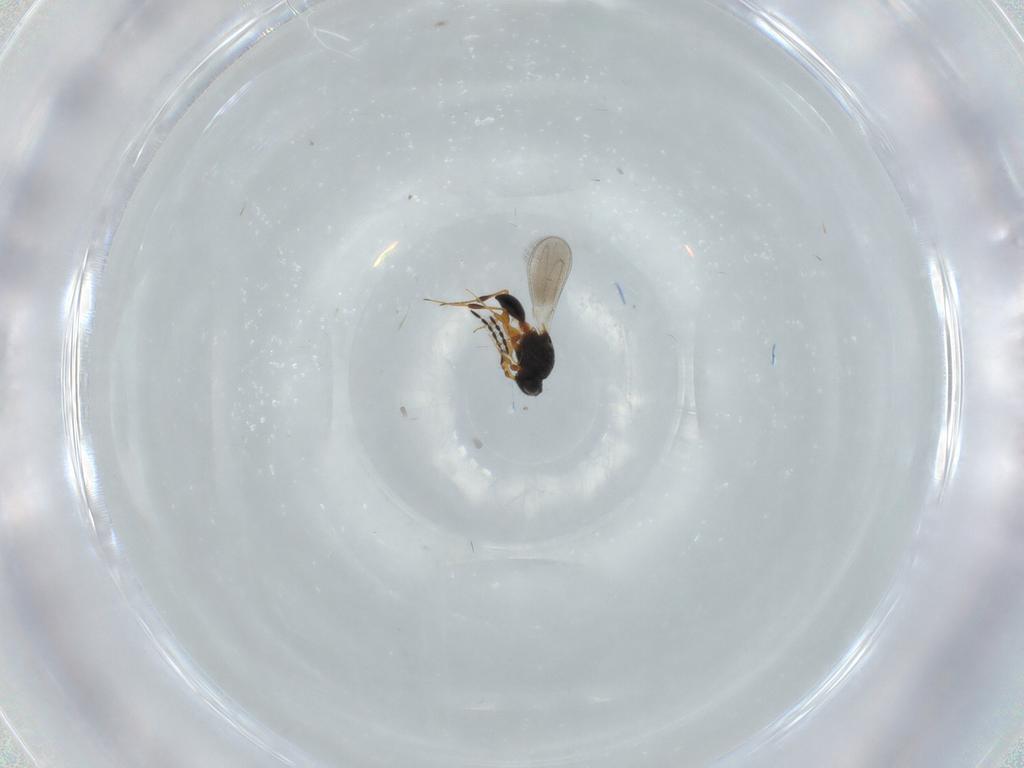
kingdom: Animalia
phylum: Arthropoda
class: Insecta
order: Hymenoptera
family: Platygastridae
